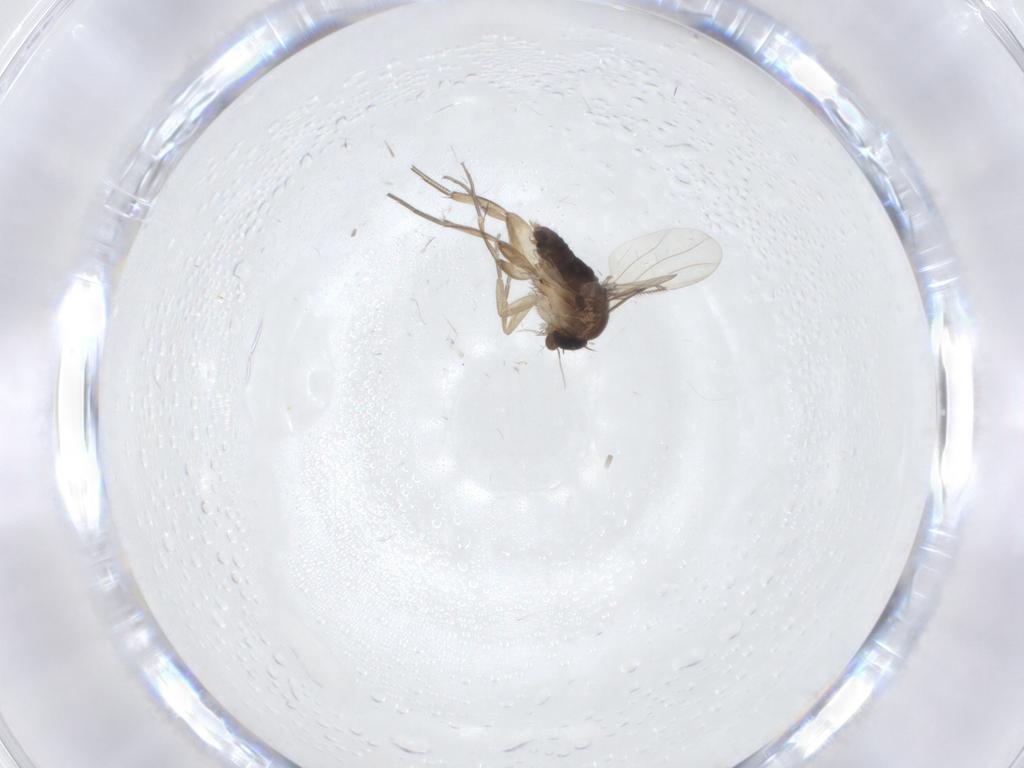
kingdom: Animalia
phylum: Arthropoda
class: Insecta
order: Diptera
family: Phoridae
